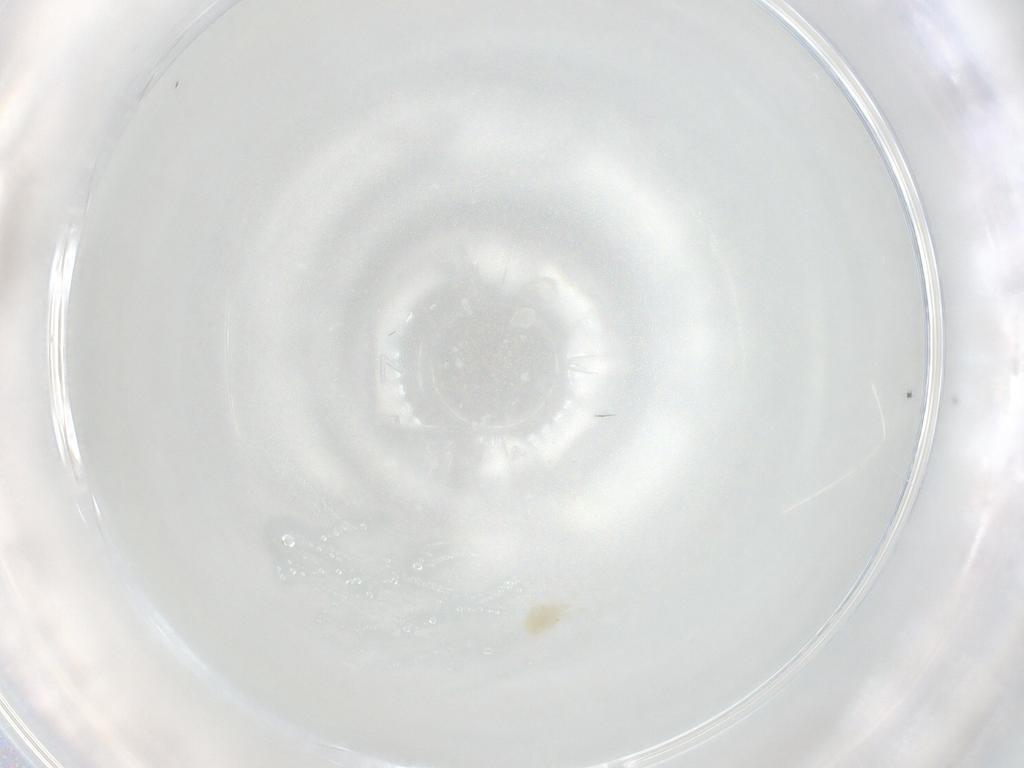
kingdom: Animalia
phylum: Arthropoda
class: Arachnida
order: Trombidiformes
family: Eupodidae
